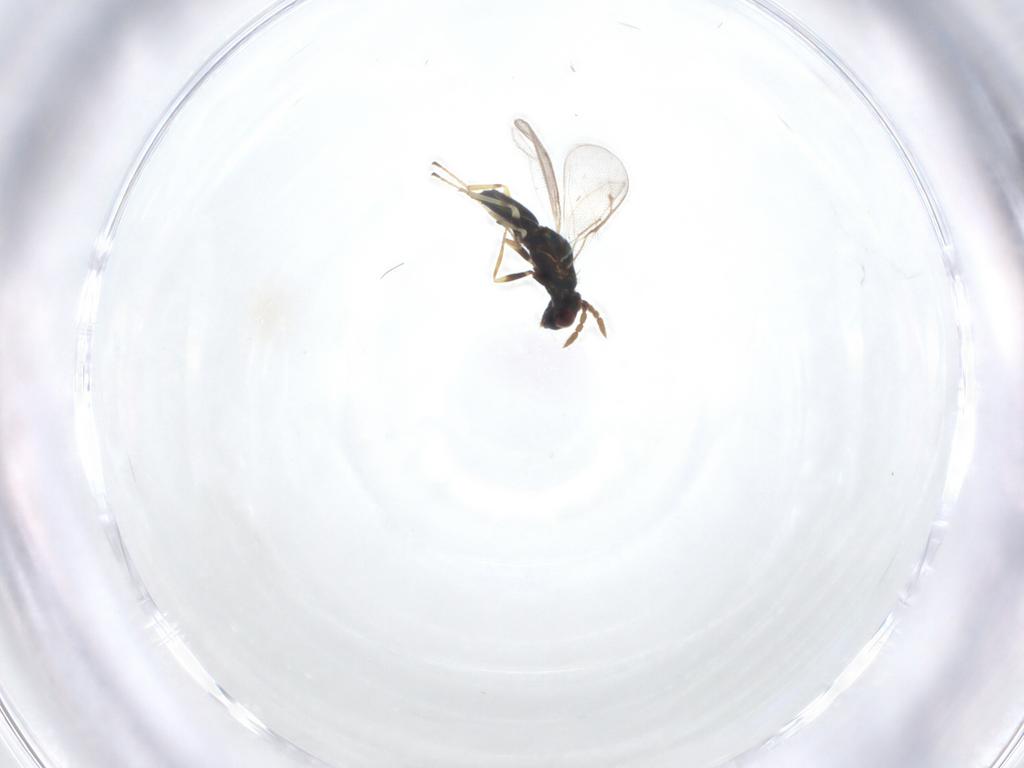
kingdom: Animalia
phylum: Arthropoda
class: Insecta
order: Hymenoptera
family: Eulophidae
